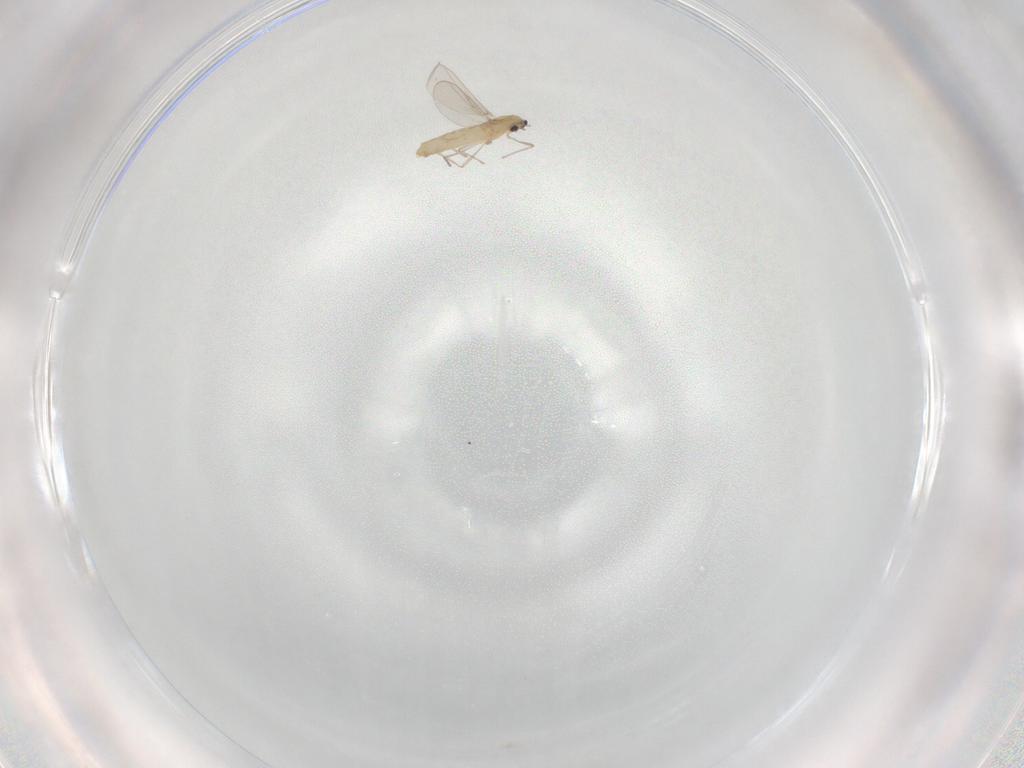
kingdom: Animalia
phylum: Arthropoda
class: Insecta
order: Diptera
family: Chironomidae
